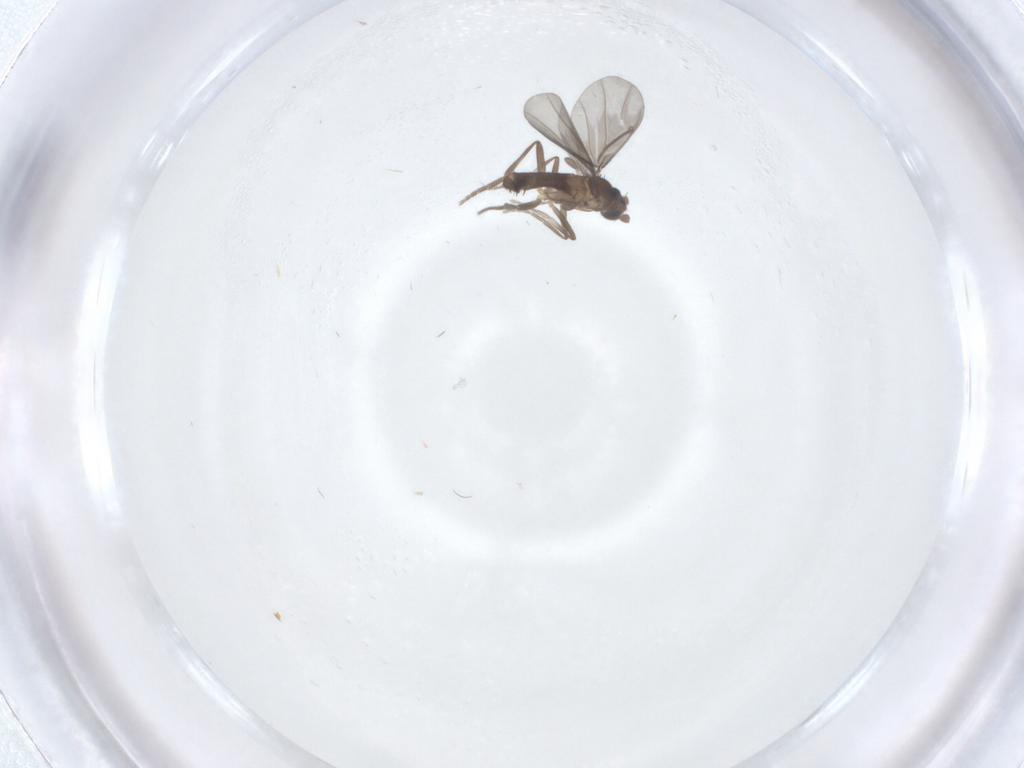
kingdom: Animalia
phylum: Arthropoda
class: Insecta
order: Diptera
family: Phoridae
